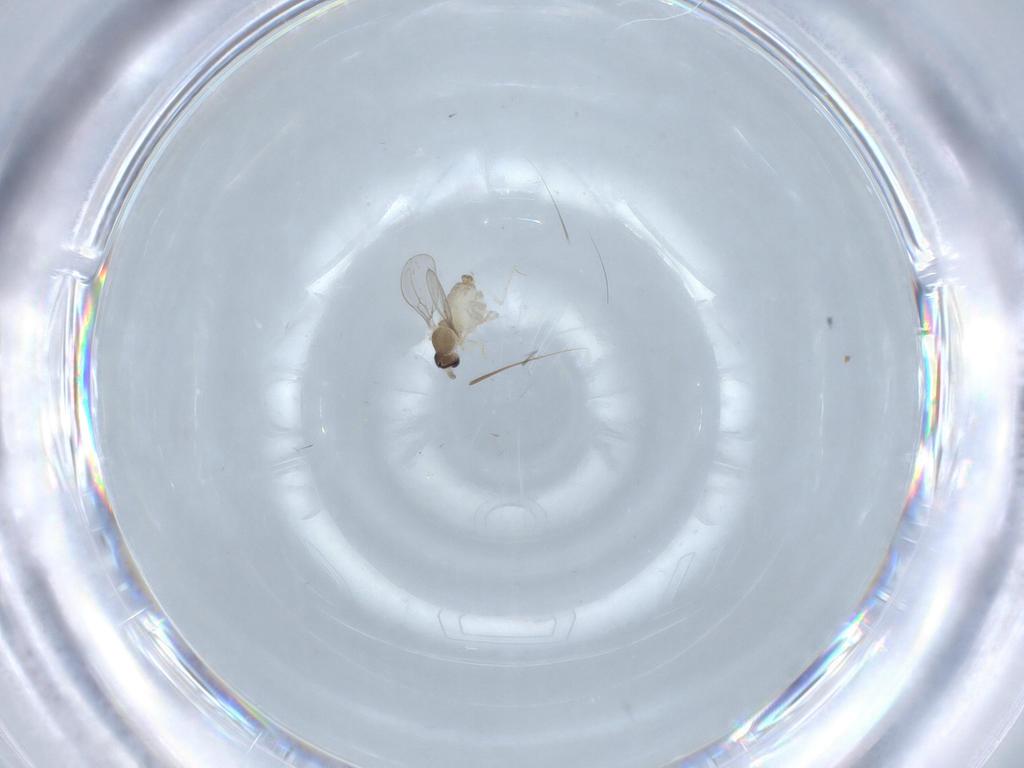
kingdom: Animalia
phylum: Arthropoda
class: Insecta
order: Diptera
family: Cecidomyiidae
